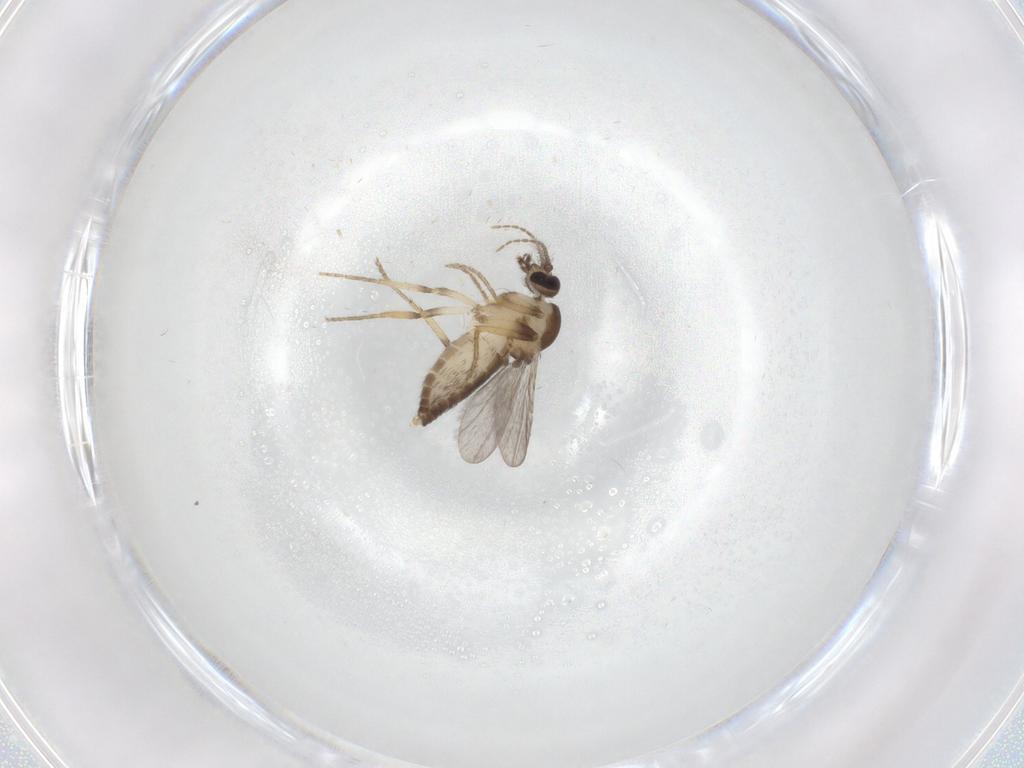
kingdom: Animalia
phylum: Arthropoda
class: Insecta
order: Diptera
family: Ceratopogonidae
